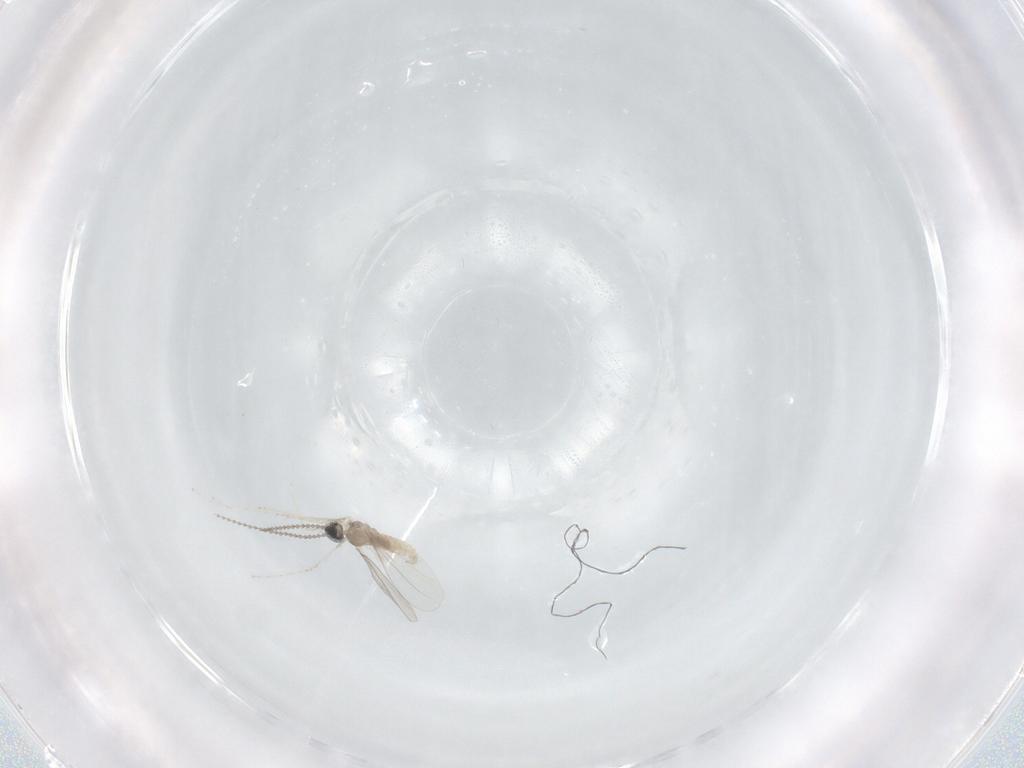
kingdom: Animalia
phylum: Arthropoda
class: Insecta
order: Diptera
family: Cecidomyiidae
